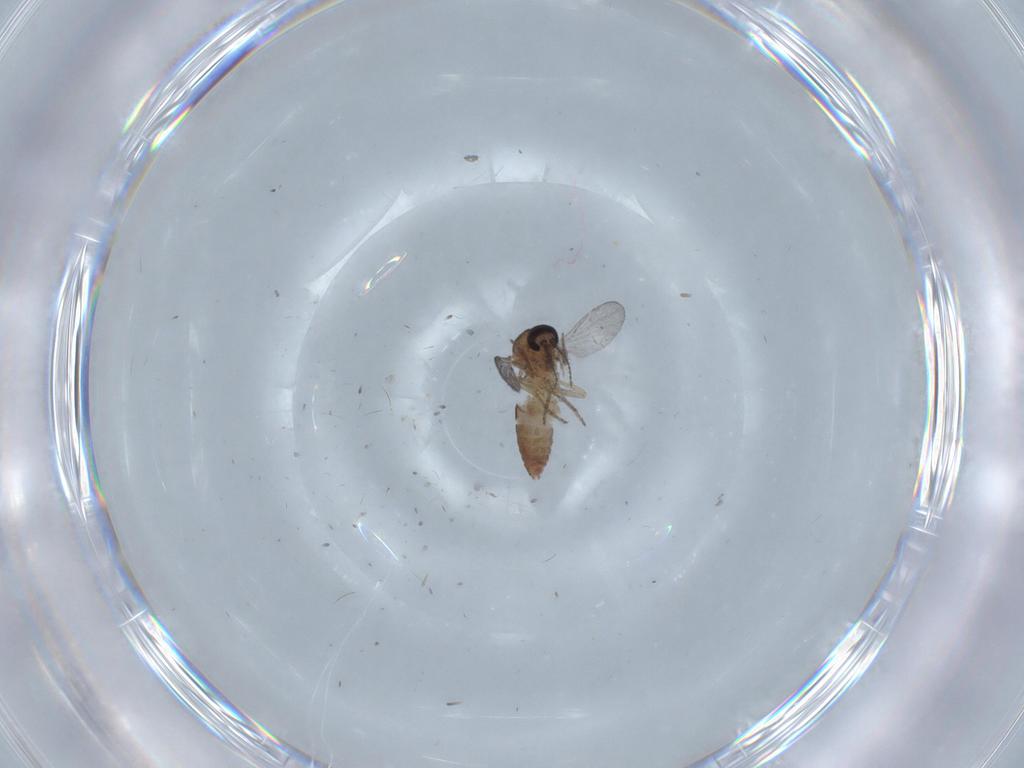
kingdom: Animalia
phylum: Arthropoda
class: Insecta
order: Diptera
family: Ceratopogonidae
